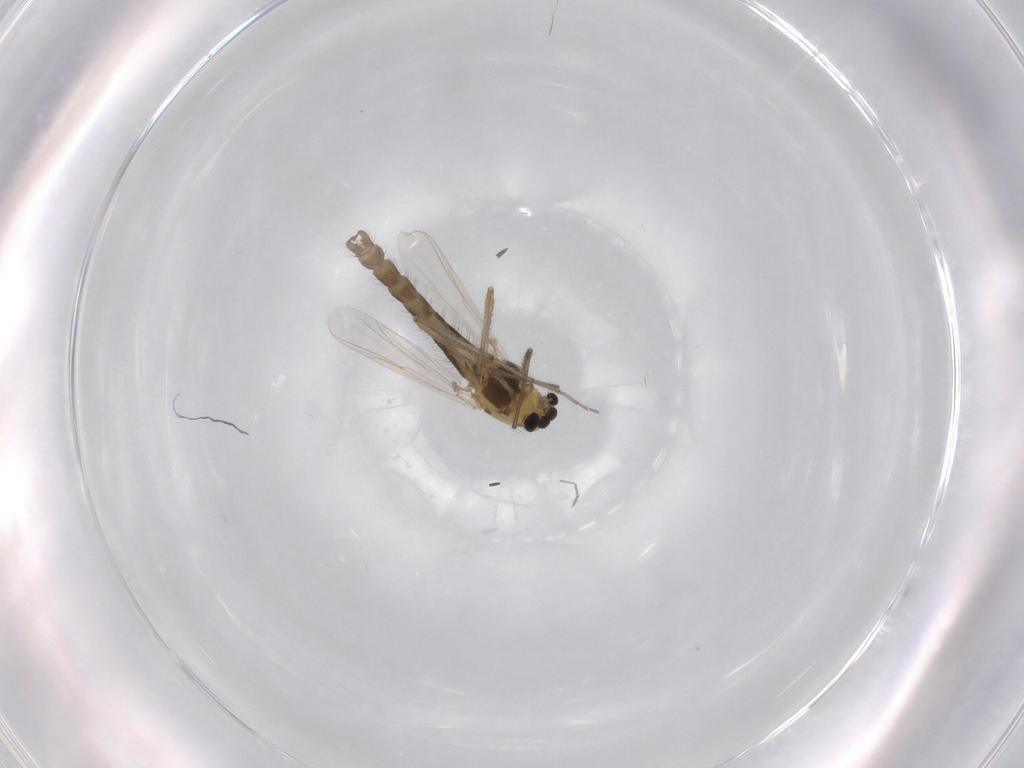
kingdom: Animalia
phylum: Arthropoda
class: Insecta
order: Diptera
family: Chironomidae
